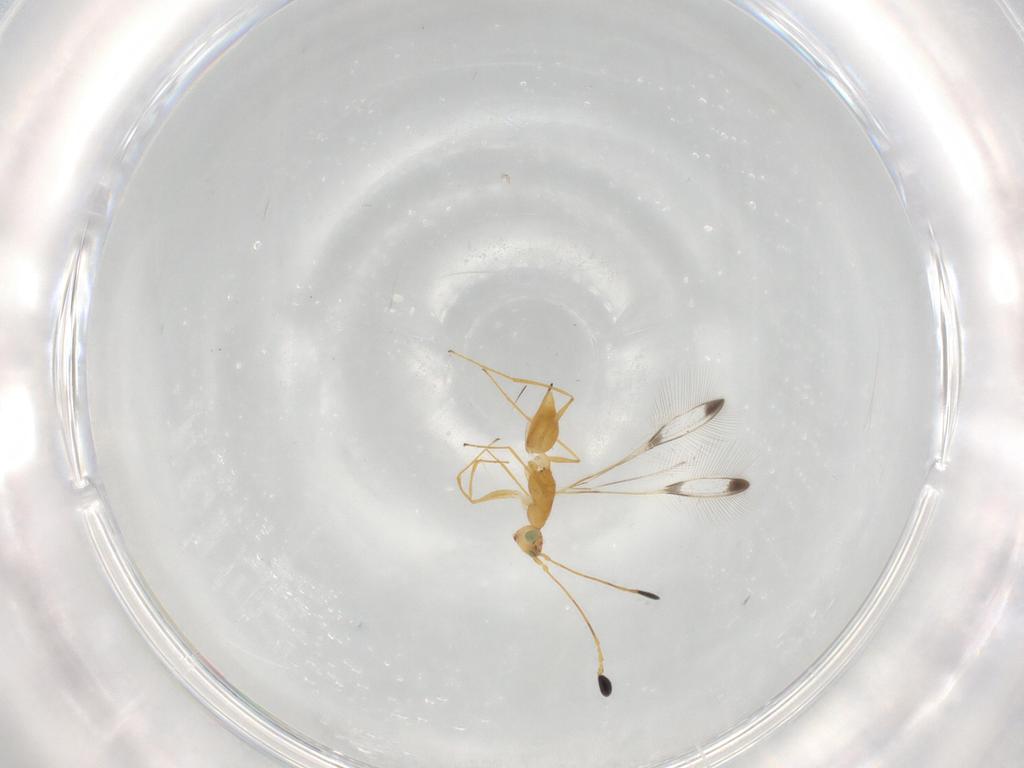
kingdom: Animalia
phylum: Arthropoda
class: Insecta
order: Hymenoptera
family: Mymaridae
